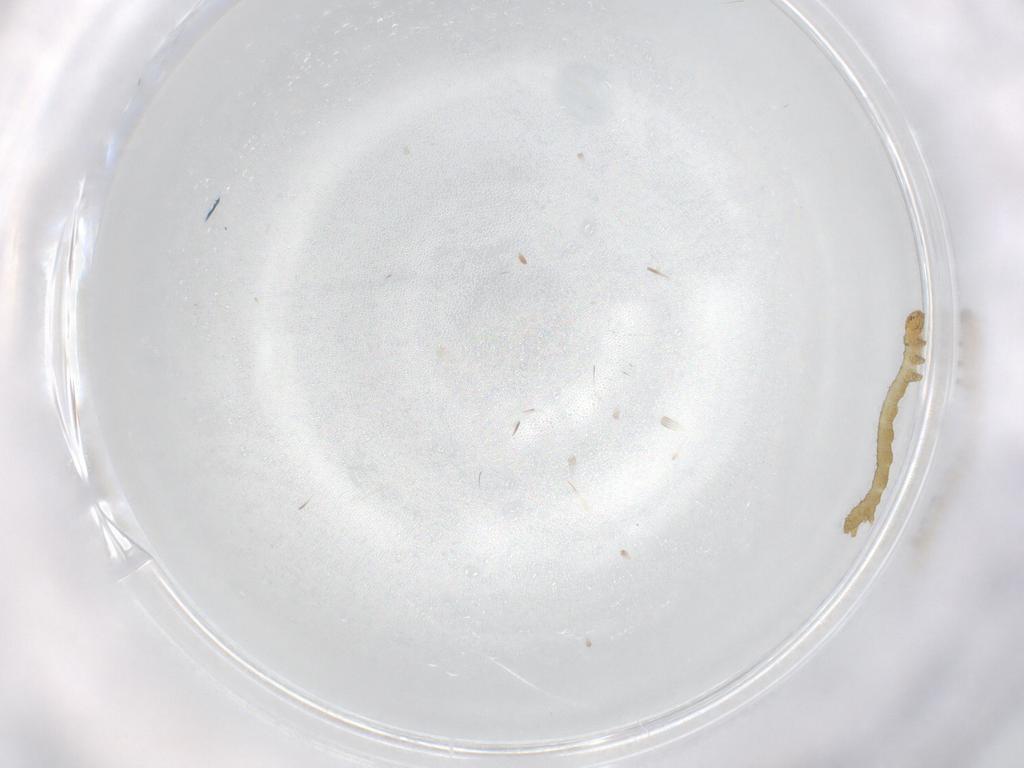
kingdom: Animalia
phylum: Arthropoda
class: Insecta
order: Lepidoptera
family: Geometridae
